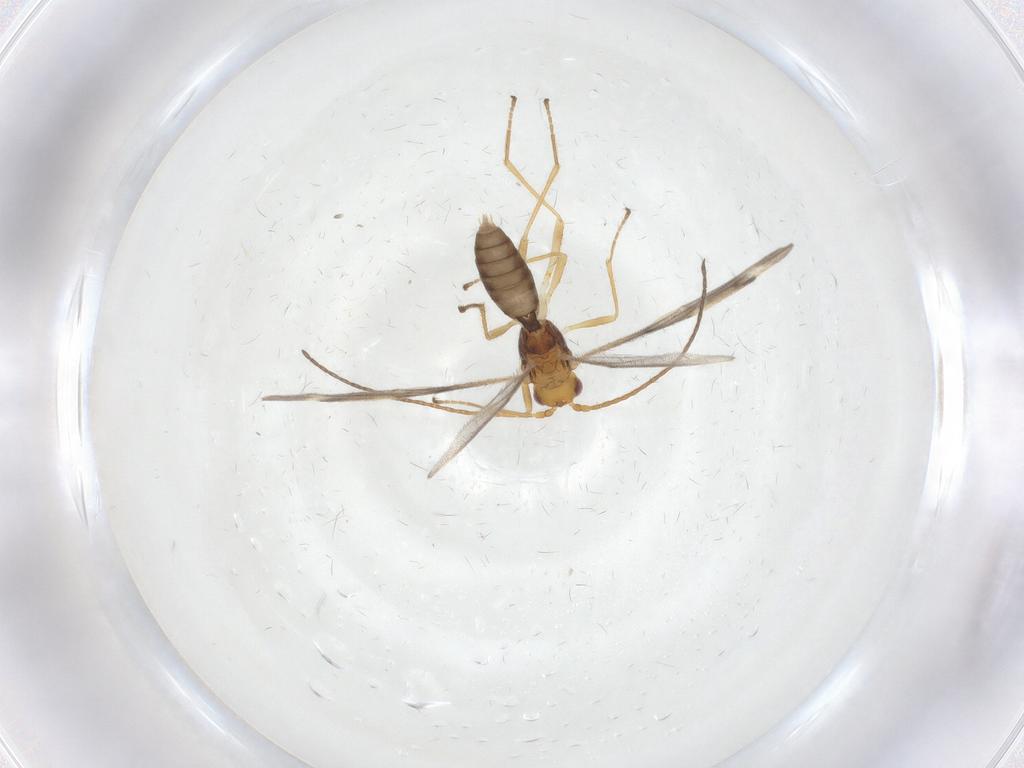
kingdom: Animalia
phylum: Arthropoda
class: Insecta
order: Hymenoptera
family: Braconidae
